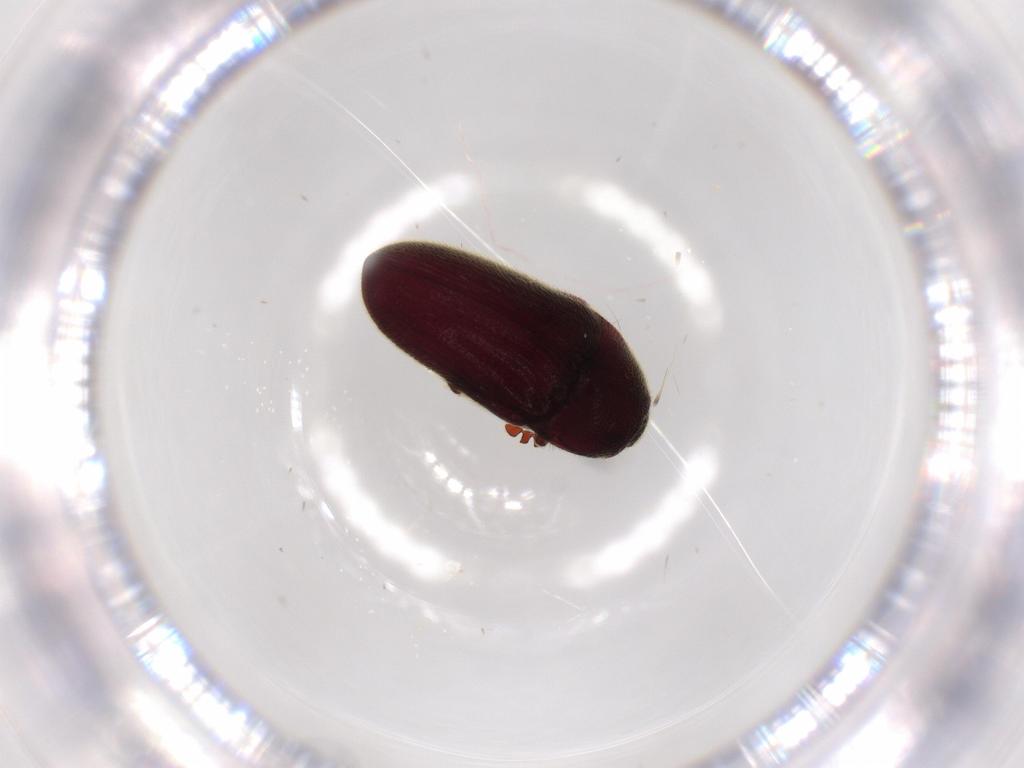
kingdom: Animalia
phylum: Arthropoda
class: Insecta
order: Coleoptera
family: Throscidae
